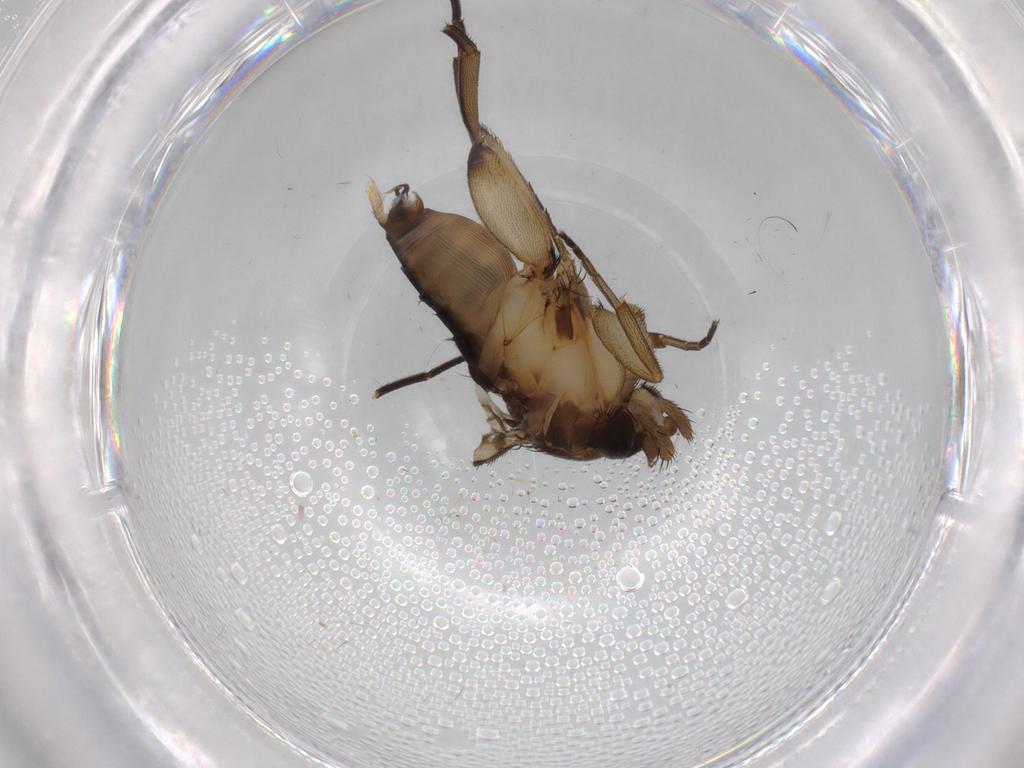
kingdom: Animalia
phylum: Arthropoda
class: Insecta
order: Diptera
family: Phoridae
